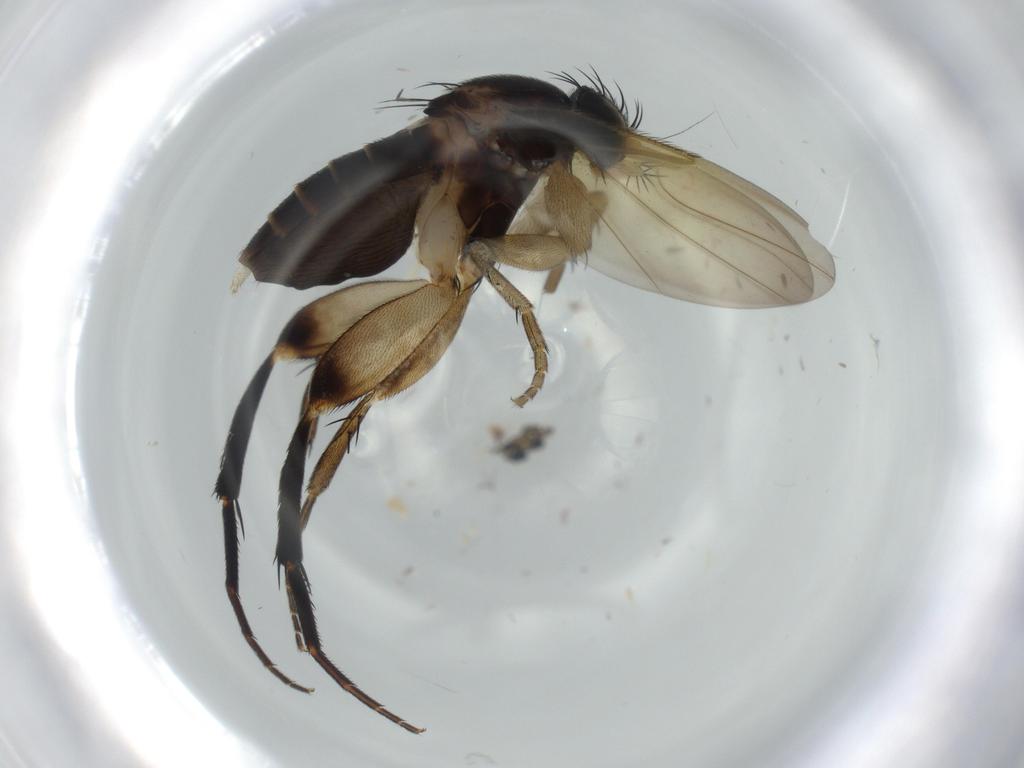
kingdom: Animalia
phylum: Arthropoda
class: Insecta
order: Diptera
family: Phoridae
